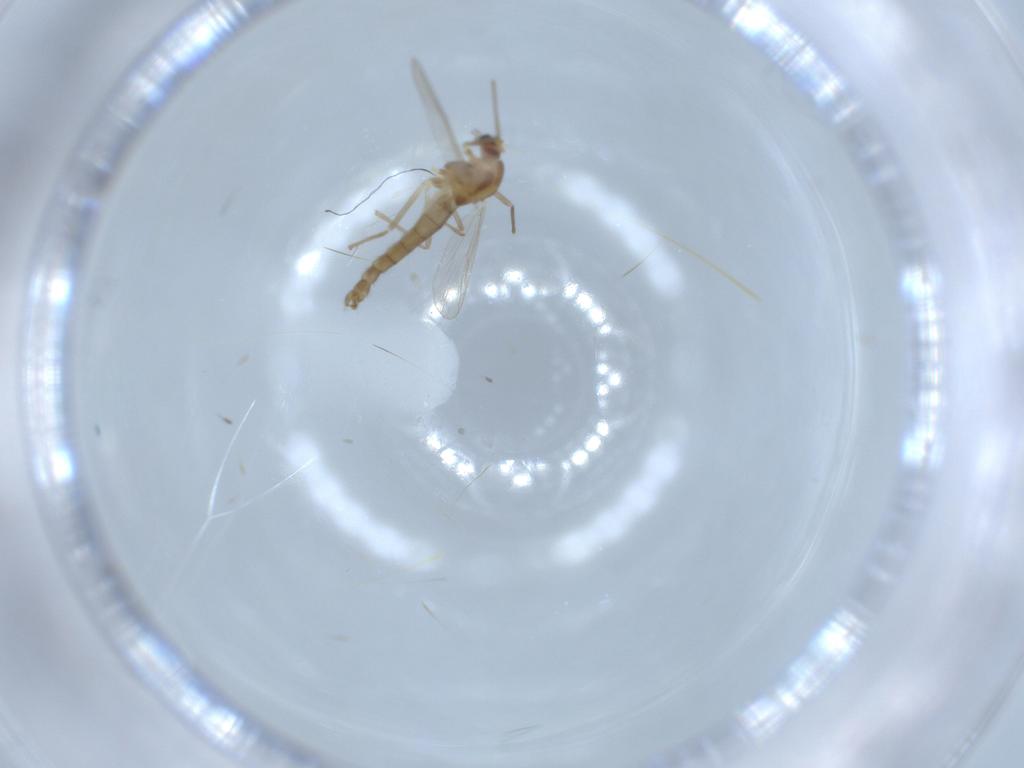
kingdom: Animalia
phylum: Arthropoda
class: Insecta
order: Diptera
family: Chironomidae
